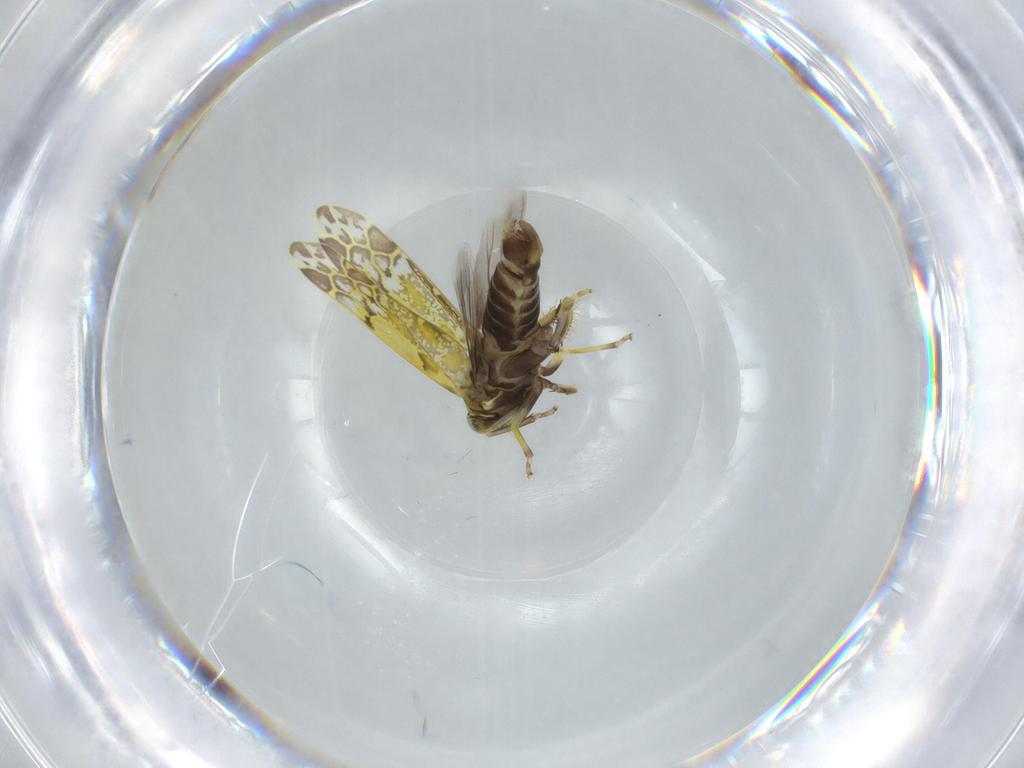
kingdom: Animalia
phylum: Arthropoda
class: Insecta
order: Hemiptera
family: Cicadellidae
